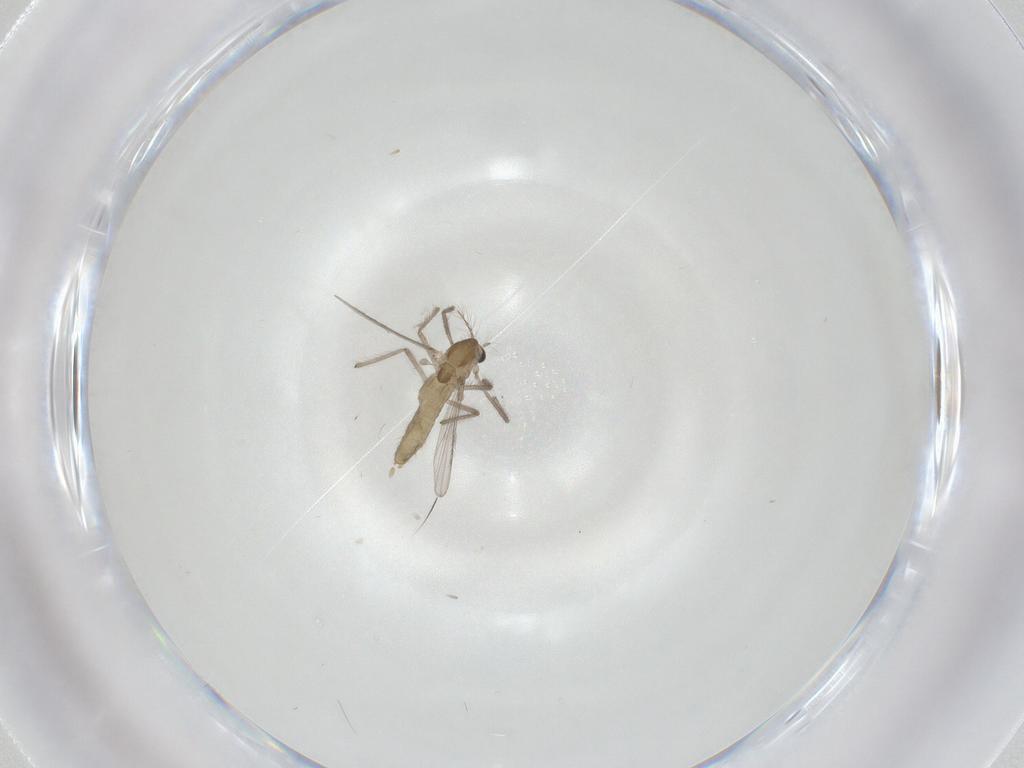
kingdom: Animalia
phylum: Arthropoda
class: Insecta
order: Diptera
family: Chironomidae
